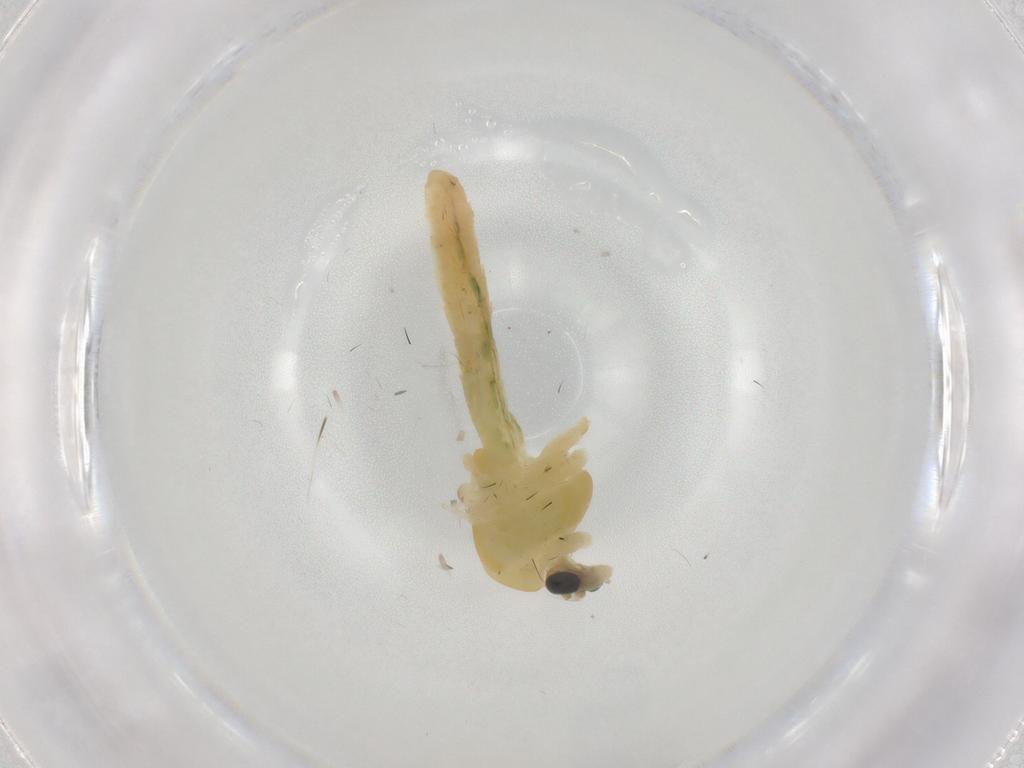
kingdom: Animalia
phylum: Arthropoda
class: Insecta
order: Diptera
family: Chironomidae
